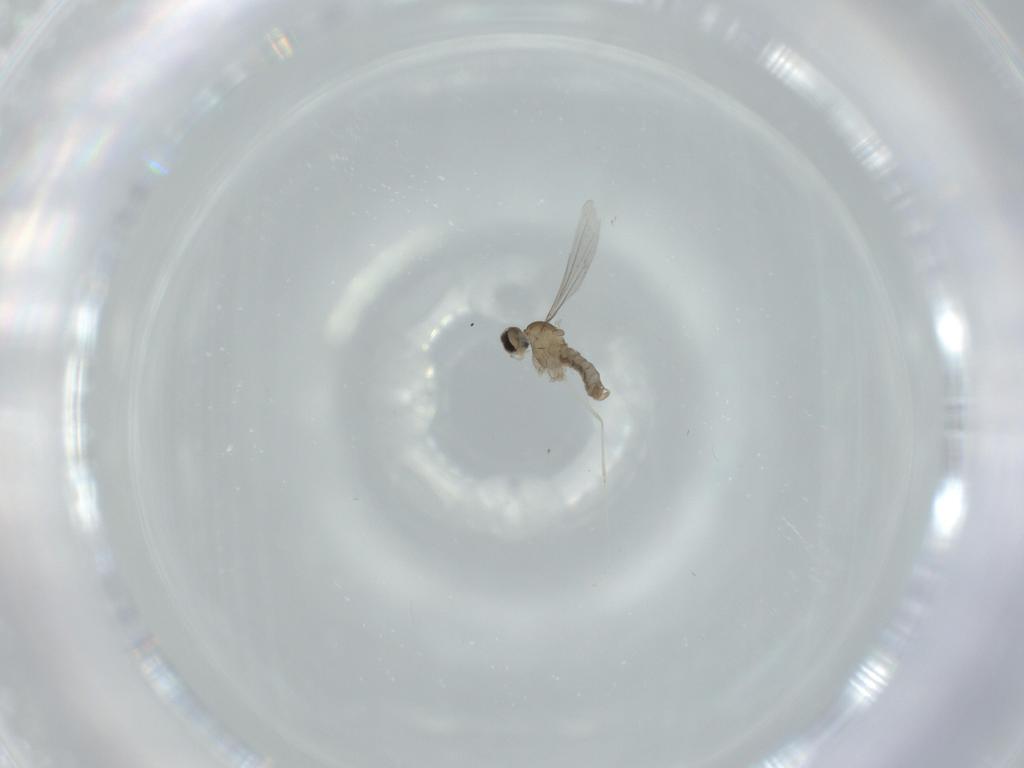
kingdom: Animalia
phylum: Arthropoda
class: Insecta
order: Diptera
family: Cecidomyiidae
